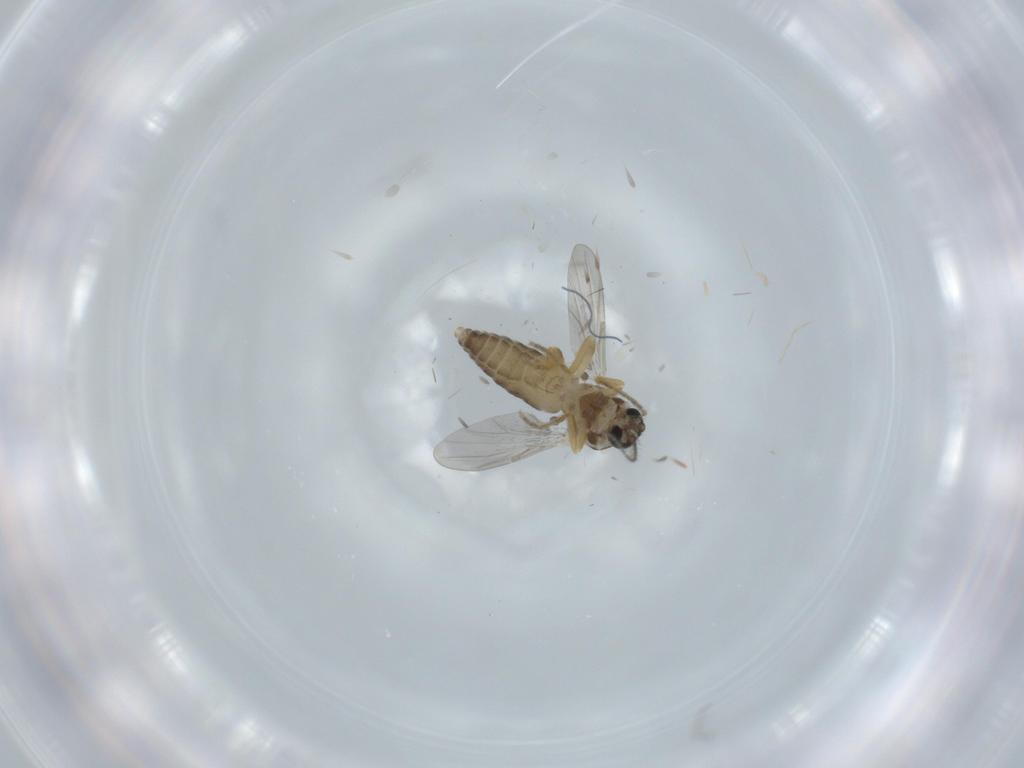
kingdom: Animalia
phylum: Arthropoda
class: Insecta
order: Diptera
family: Ceratopogonidae
